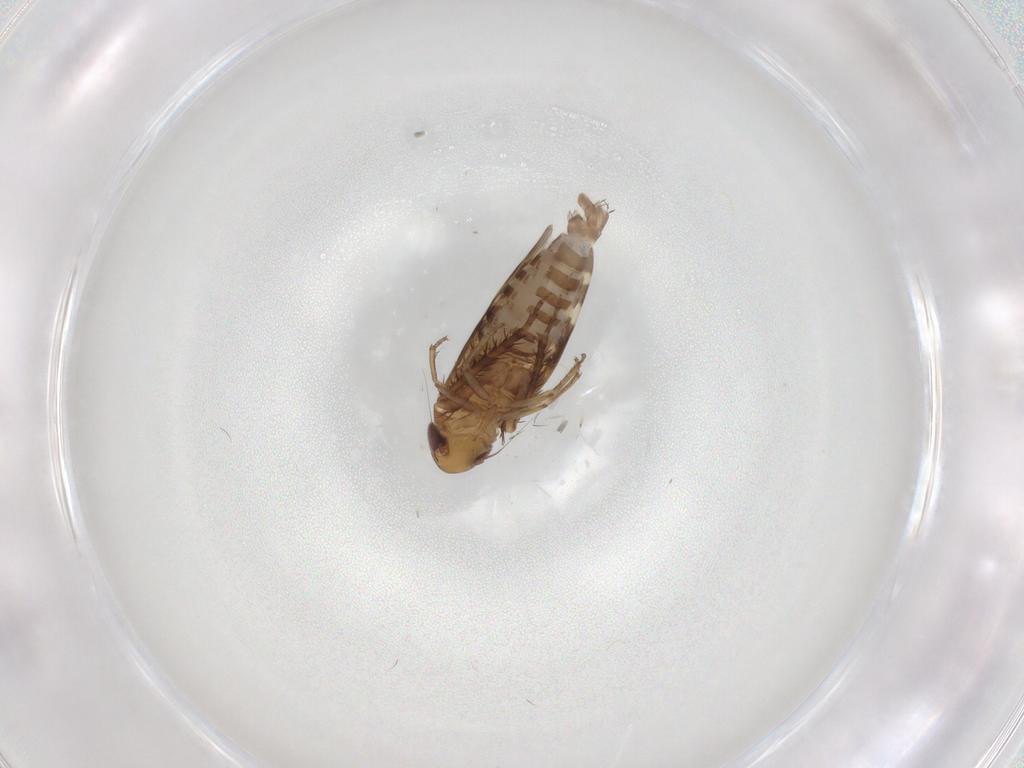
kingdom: Animalia
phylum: Arthropoda
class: Insecta
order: Hemiptera
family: Cicadellidae
